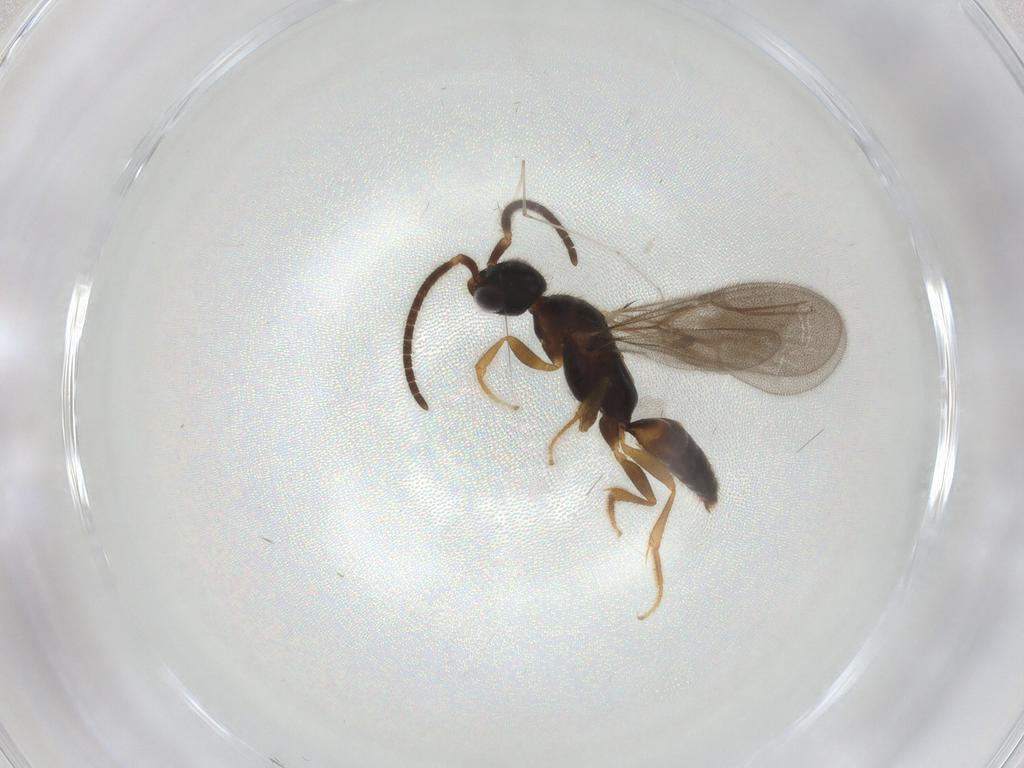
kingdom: Animalia
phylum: Arthropoda
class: Insecta
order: Hymenoptera
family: Bethylidae
